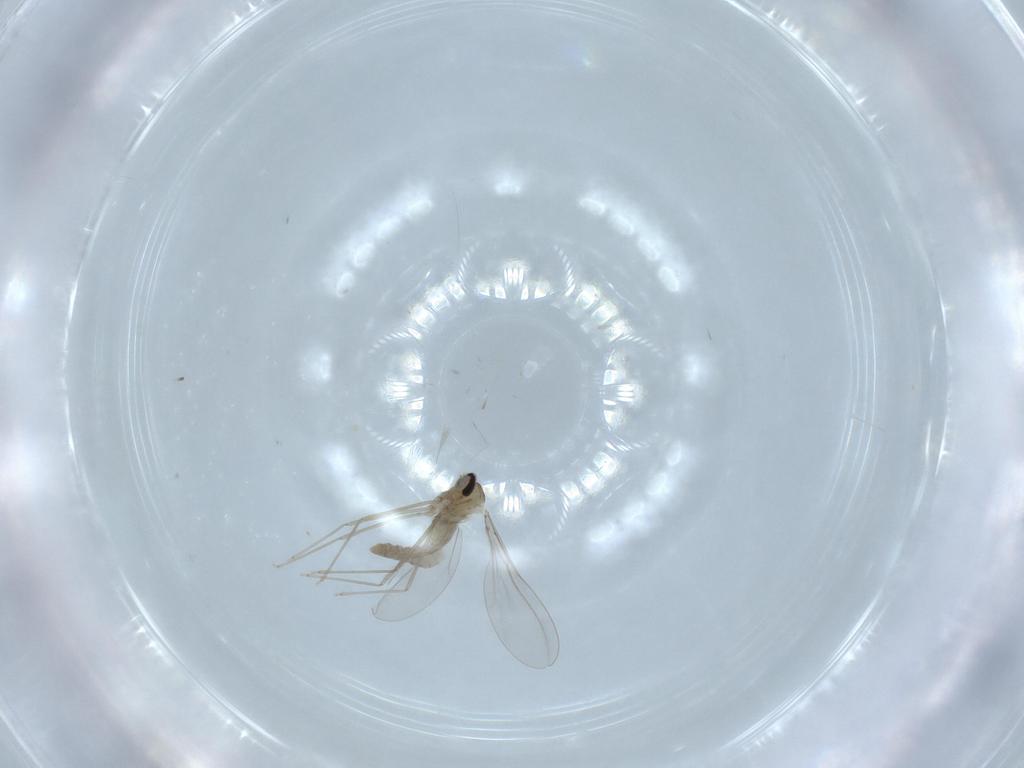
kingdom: Animalia
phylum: Arthropoda
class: Insecta
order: Diptera
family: Cecidomyiidae
